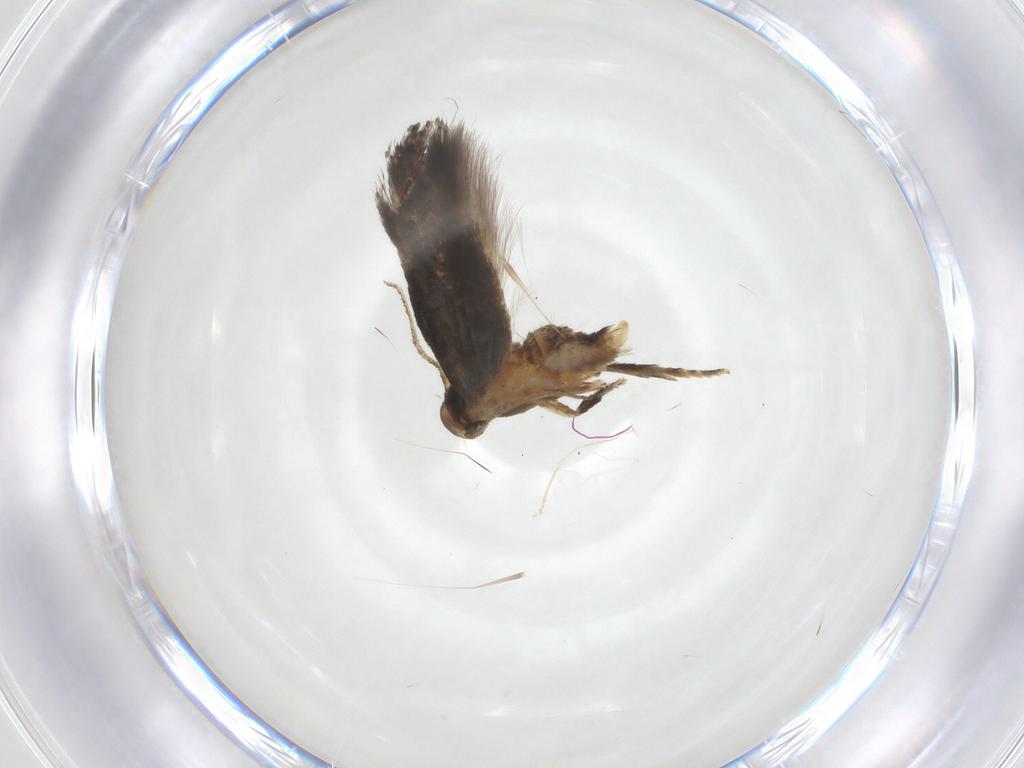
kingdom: Animalia
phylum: Arthropoda
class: Insecta
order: Lepidoptera
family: Elachistidae
